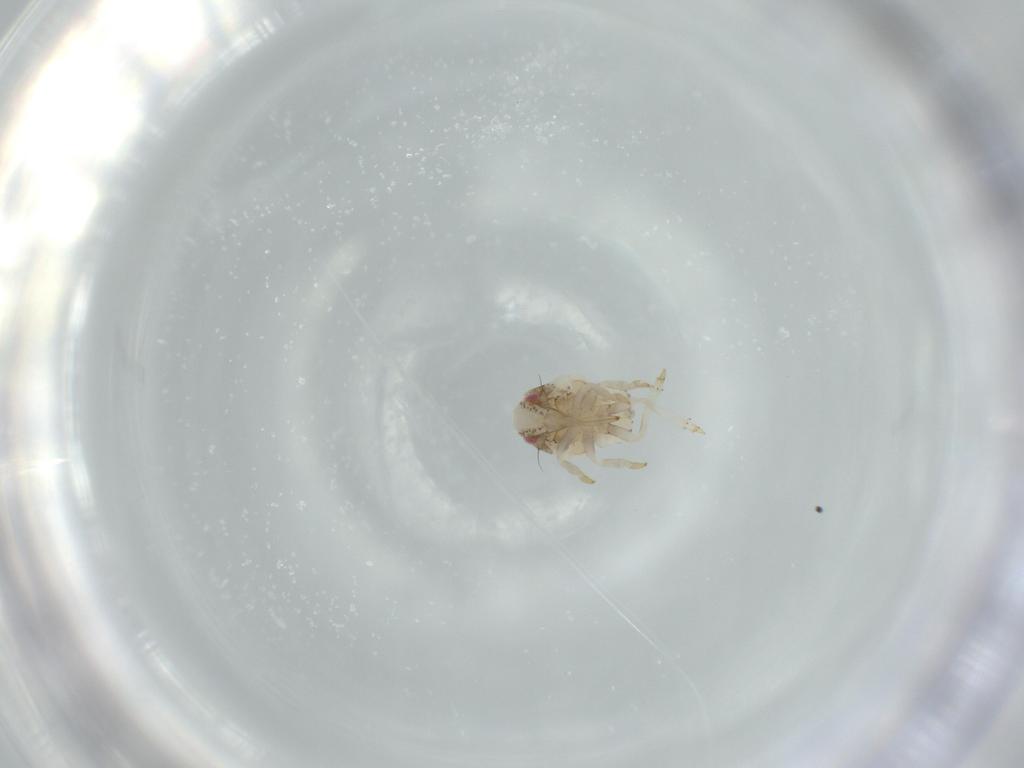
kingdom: Animalia
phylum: Arthropoda
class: Insecta
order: Hemiptera
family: Acanaloniidae
